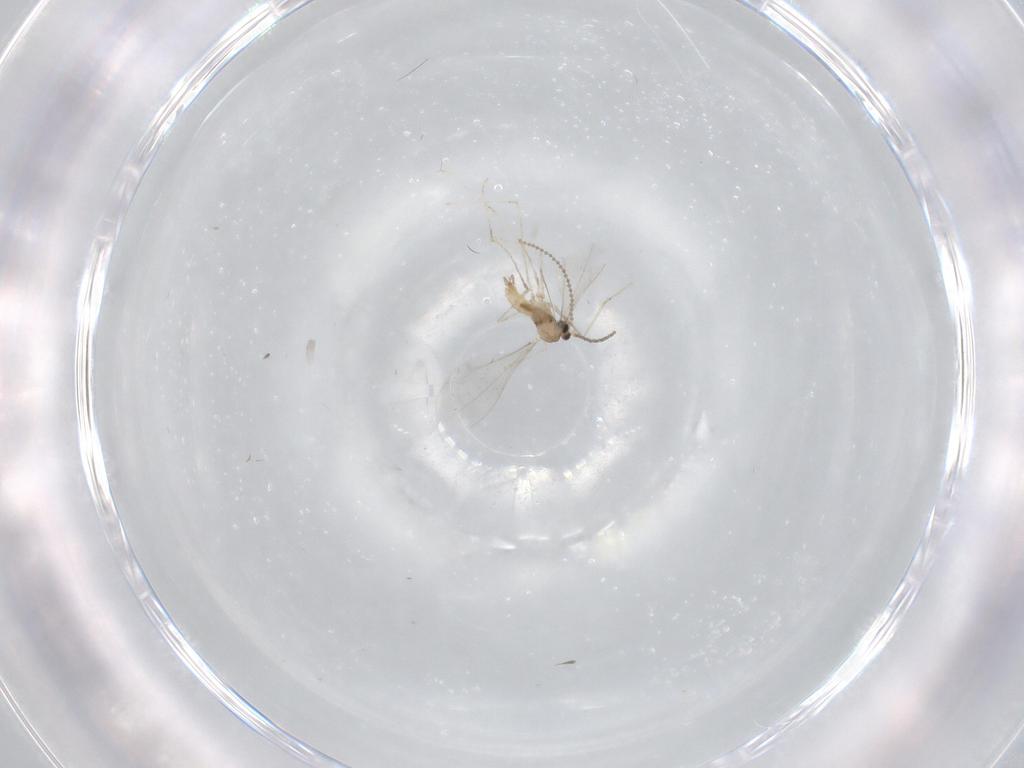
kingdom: Animalia
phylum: Arthropoda
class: Insecta
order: Diptera
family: Cecidomyiidae
